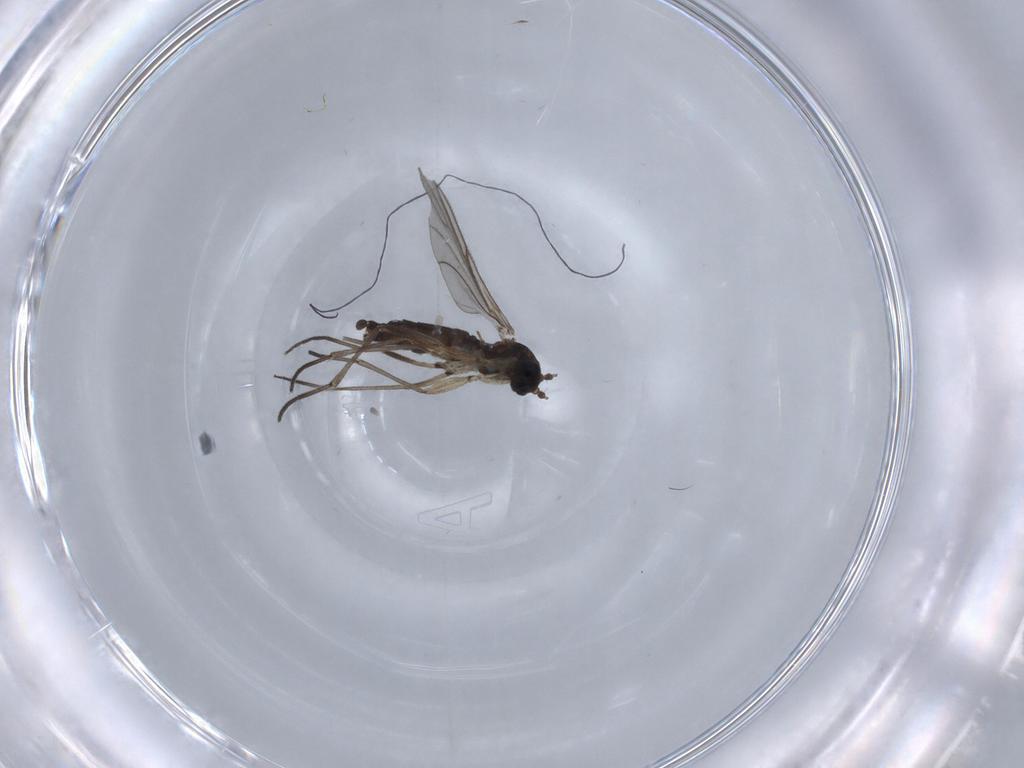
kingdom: Animalia
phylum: Arthropoda
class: Insecta
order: Diptera
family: Sciaridae
